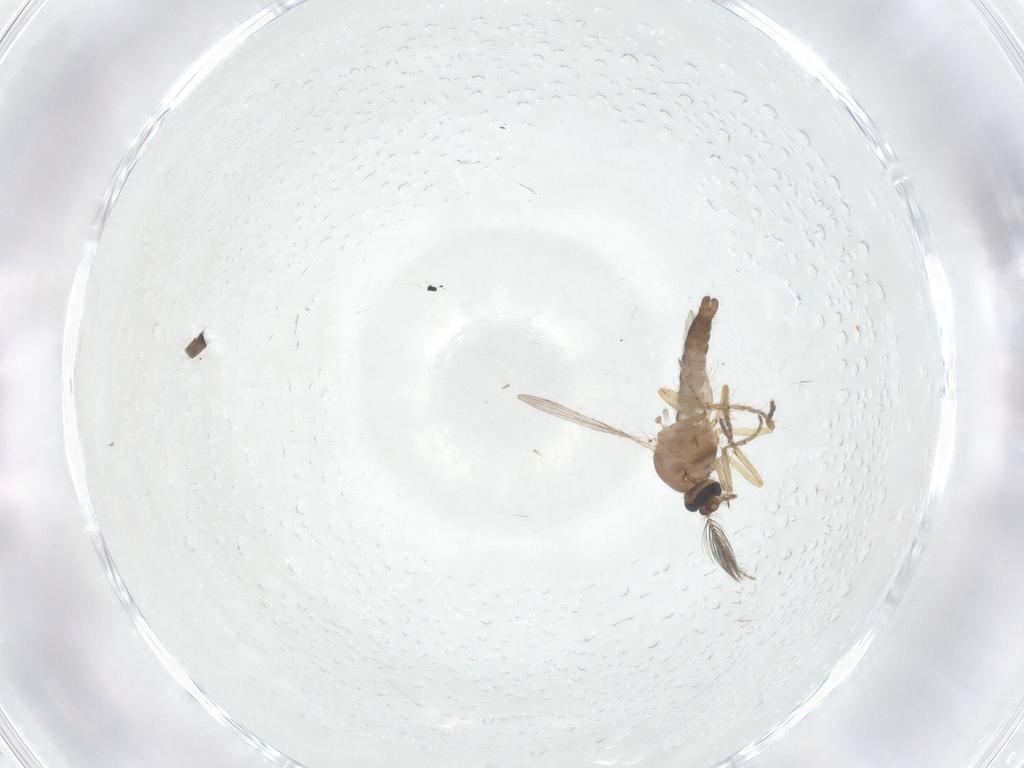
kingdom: Animalia
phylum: Arthropoda
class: Insecta
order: Diptera
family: Ceratopogonidae
